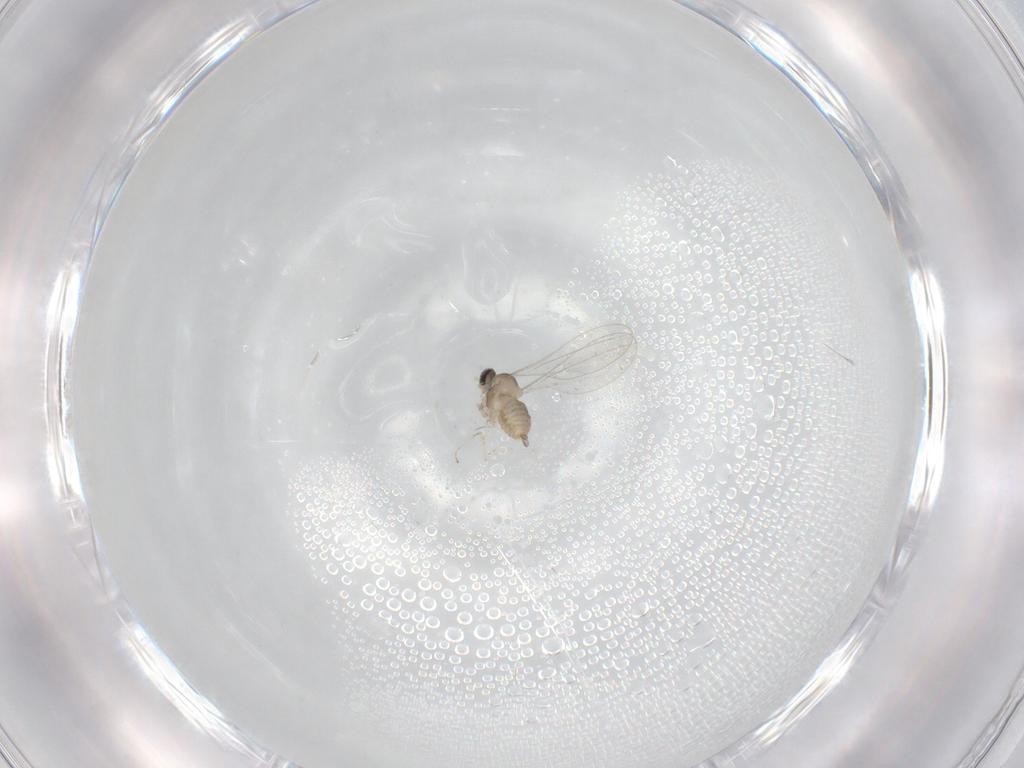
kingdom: Animalia
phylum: Arthropoda
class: Insecta
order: Diptera
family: Cecidomyiidae
